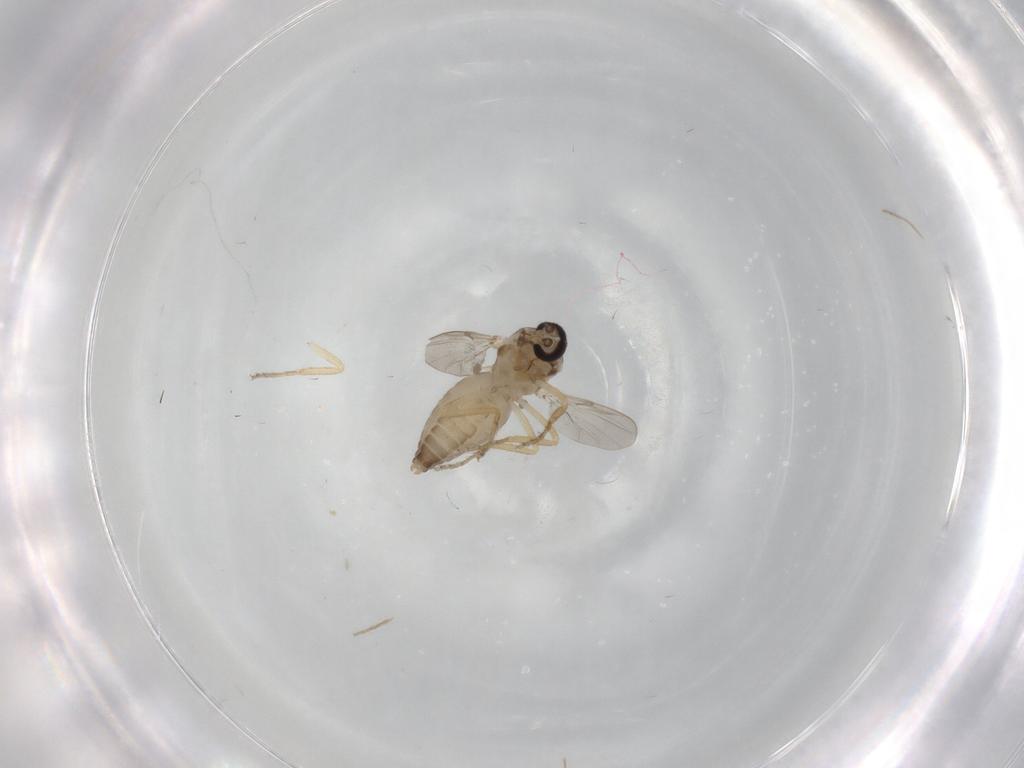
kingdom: Animalia
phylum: Arthropoda
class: Insecta
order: Diptera
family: Ceratopogonidae
